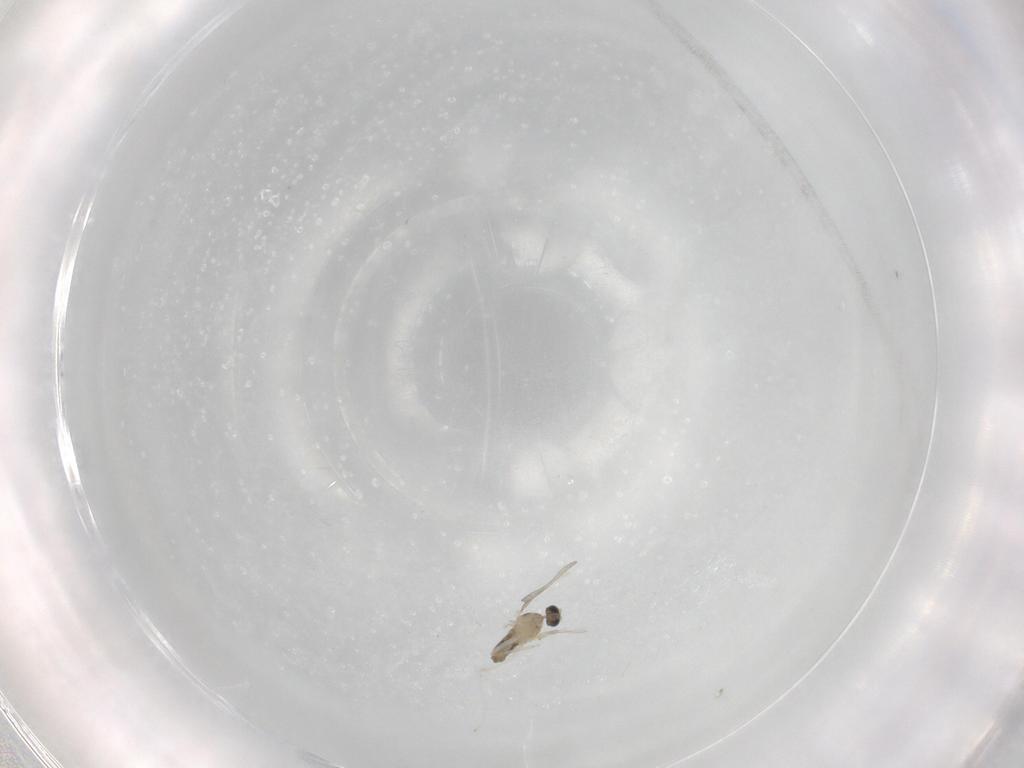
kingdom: Animalia
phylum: Arthropoda
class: Insecta
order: Diptera
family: Cecidomyiidae
